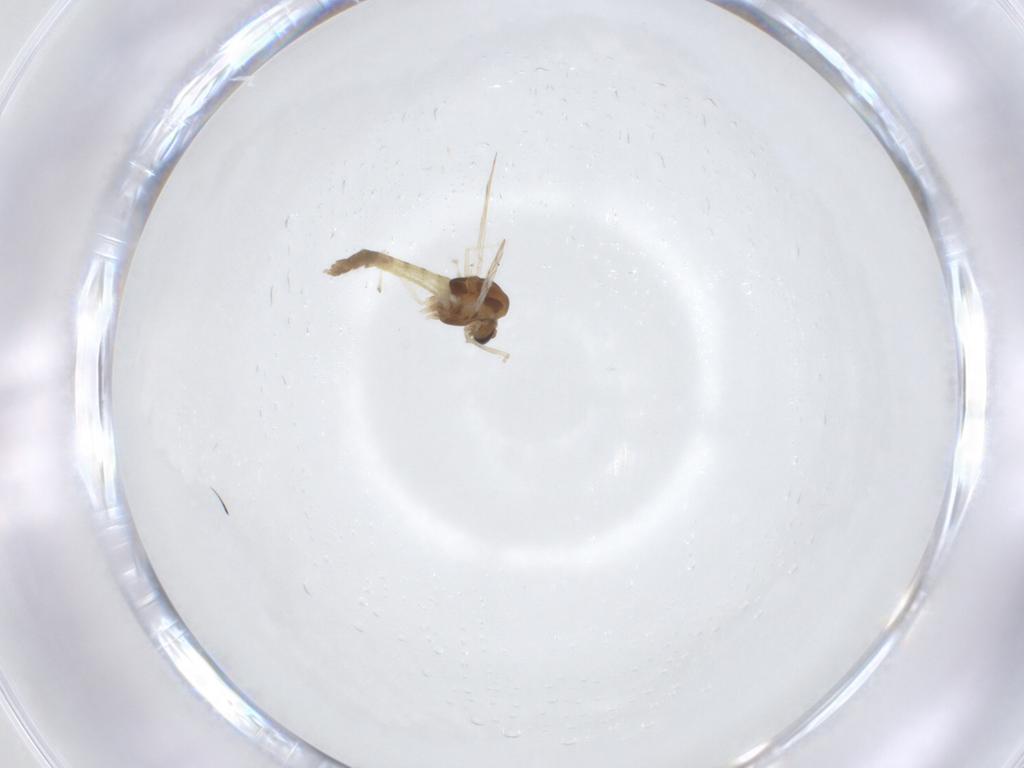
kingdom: Animalia
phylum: Arthropoda
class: Insecta
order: Diptera
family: Chironomidae
